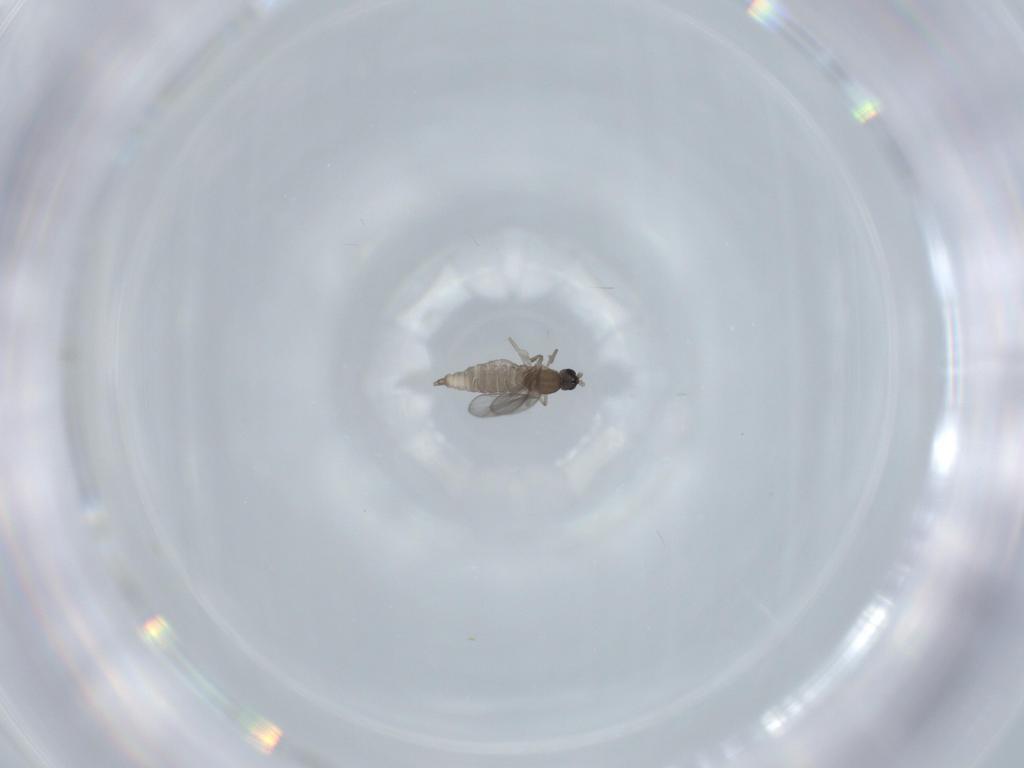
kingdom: Animalia
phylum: Arthropoda
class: Insecta
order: Diptera
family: Cecidomyiidae
